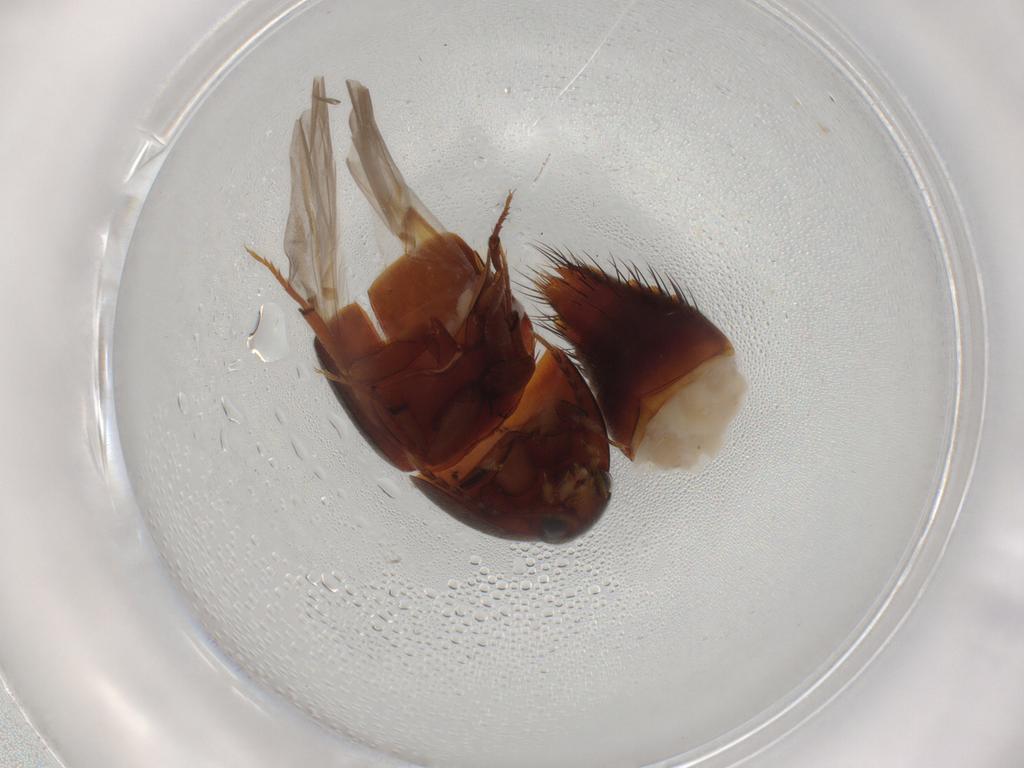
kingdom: Animalia
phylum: Arthropoda
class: Insecta
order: Coleoptera
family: Staphylinidae
